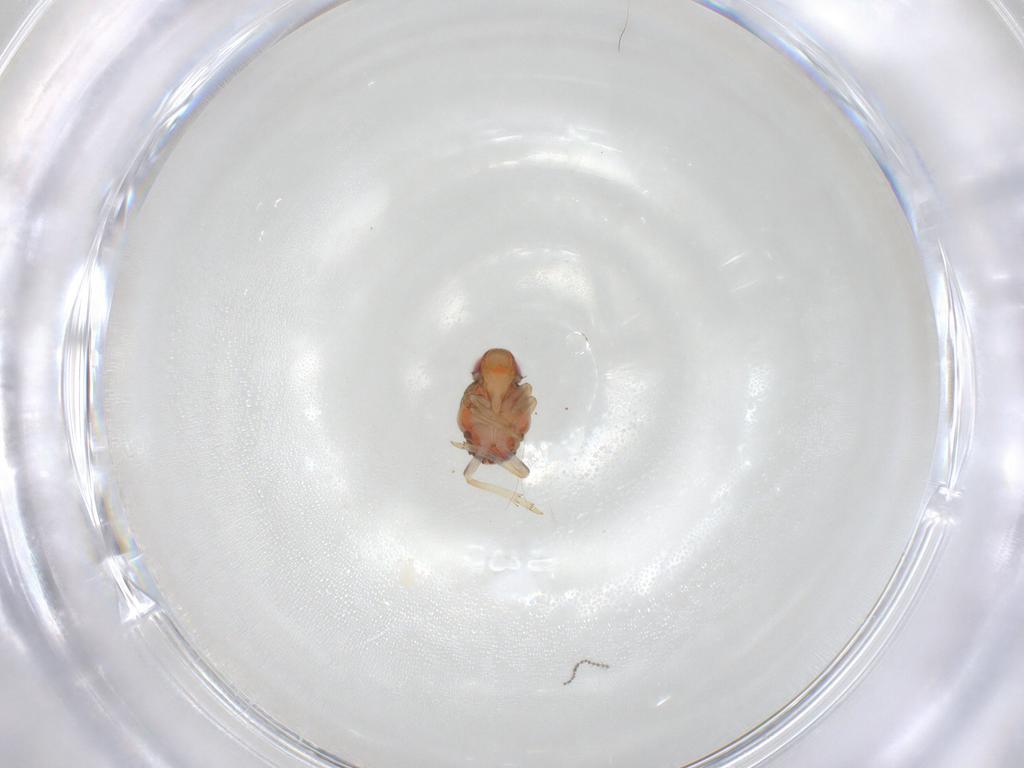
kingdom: Animalia
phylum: Arthropoda
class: Insecta
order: Hemiptera
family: Issidae
